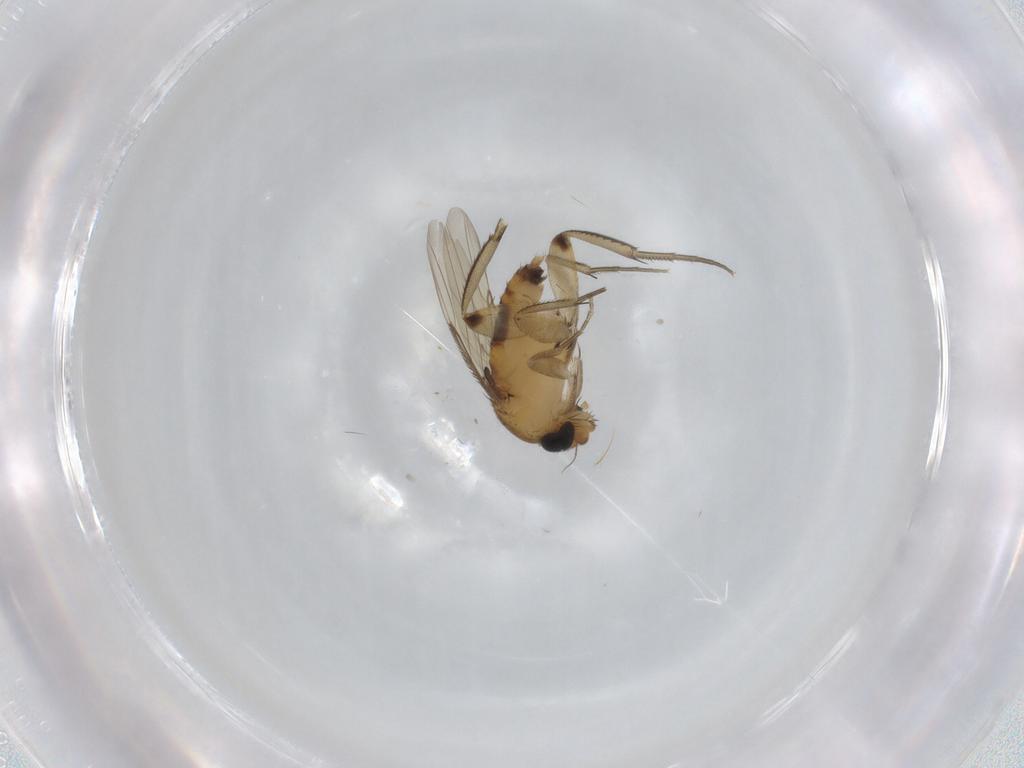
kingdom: Animalia
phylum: Arthropoda
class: Insecta
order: Diptera
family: Phoridae
